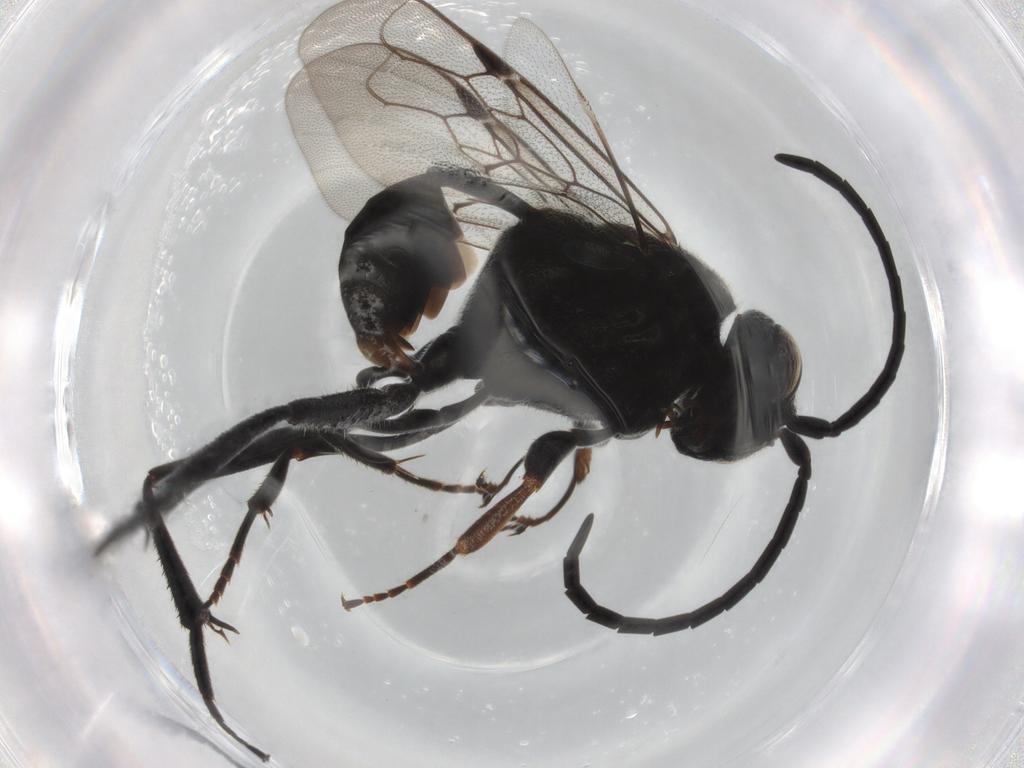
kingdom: Animalia
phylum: Arthropoda
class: Insecta
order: Hymenoptera
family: Evaniidae
